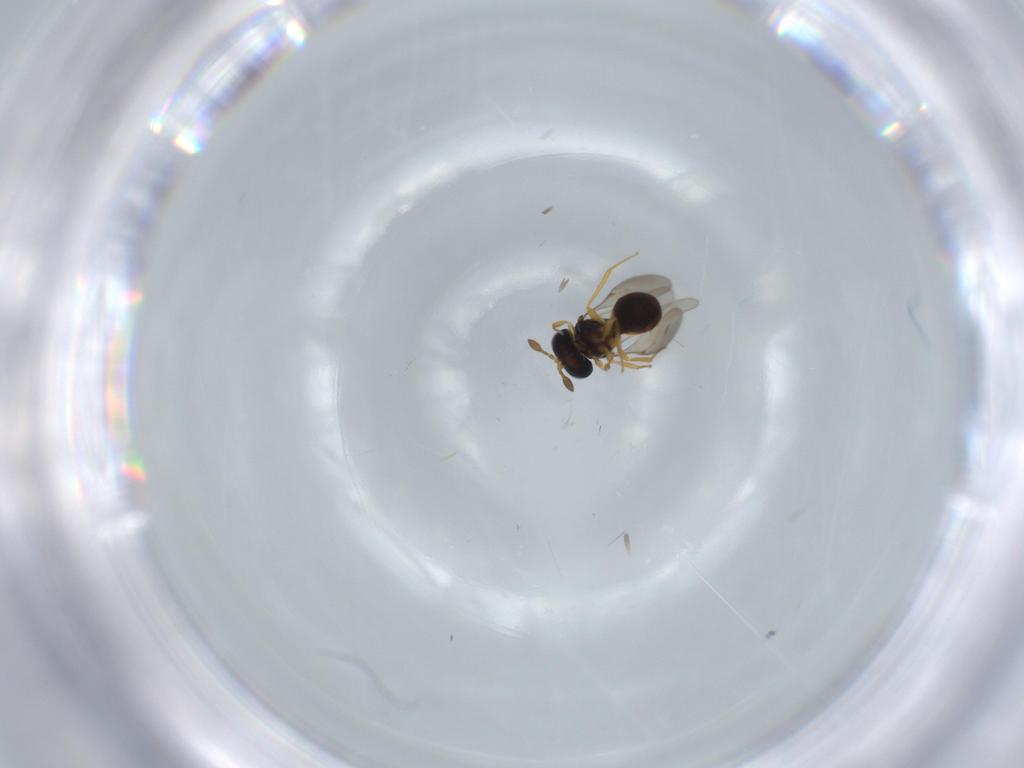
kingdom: Animalia
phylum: Arthropoda
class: Insecta
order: Hymenoptera
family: Scelionidae
